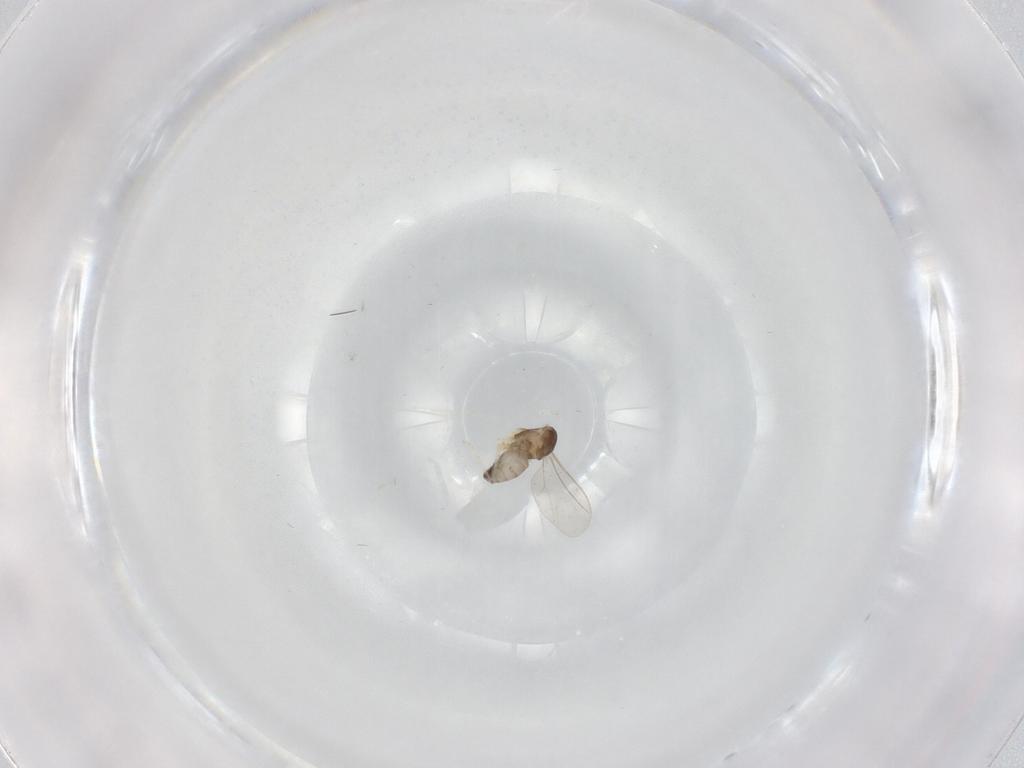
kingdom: Animalia
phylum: Arthropoda
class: Insecta
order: Diptera
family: Cecidomyiidae
